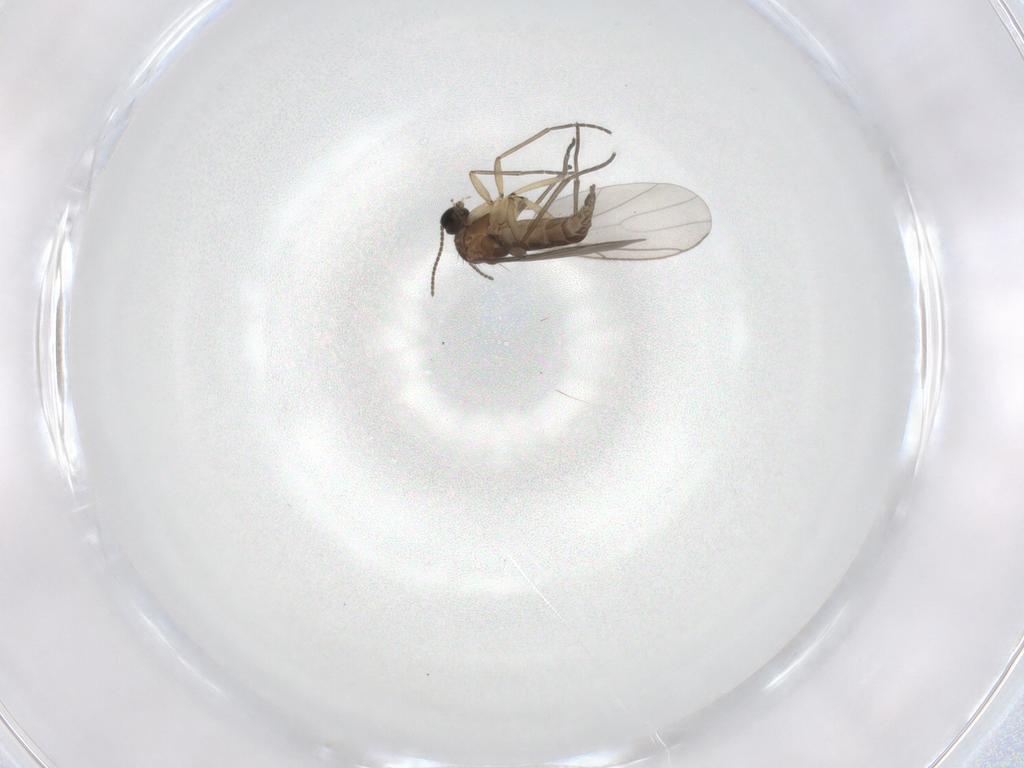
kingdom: Animalia
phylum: Arthropoda
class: Insecta
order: Diptera
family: Sciaridae
